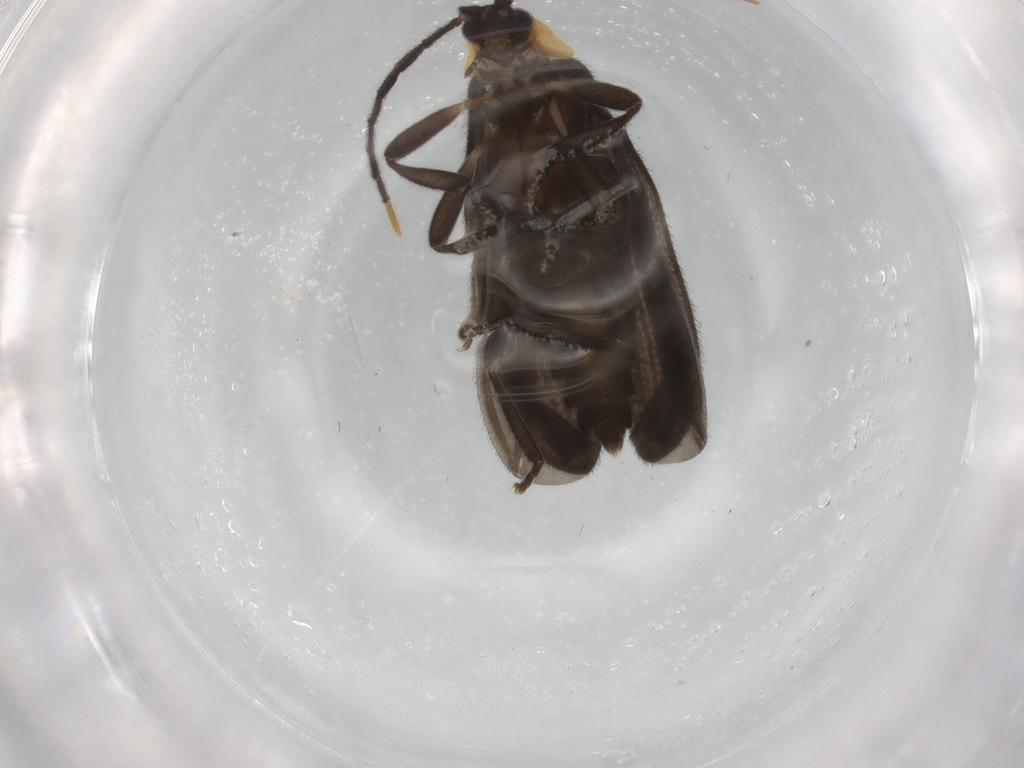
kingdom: Animalia
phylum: Arthropoda
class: Insecta
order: Coleoptera
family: Lycidae
